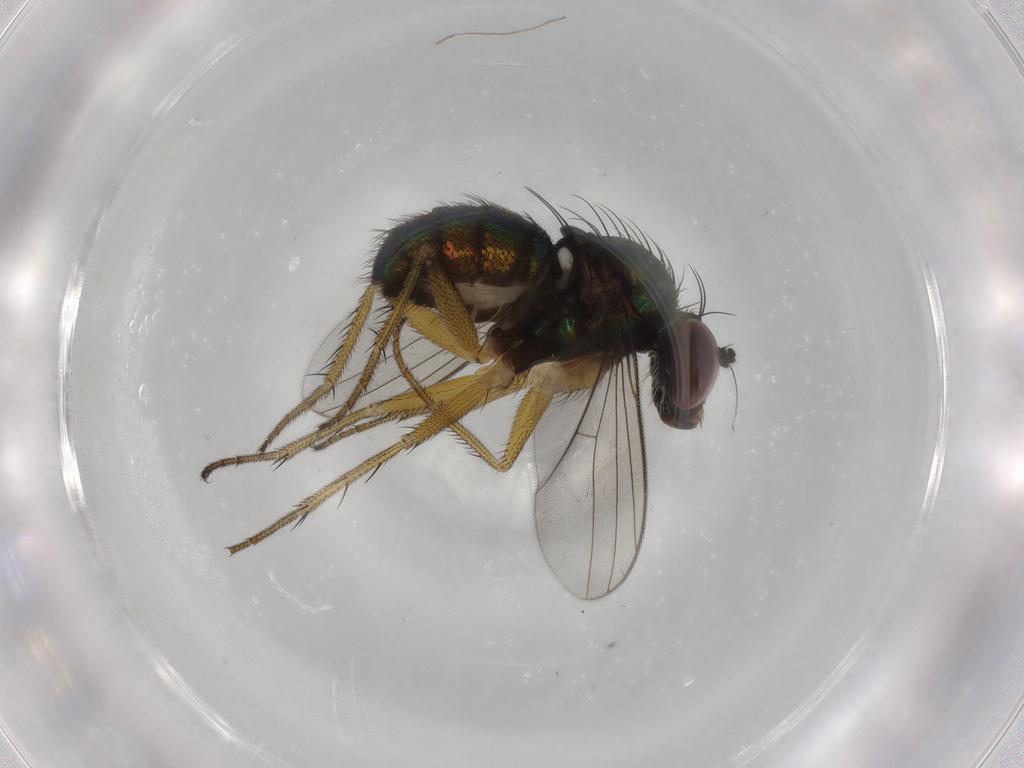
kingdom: Animalia
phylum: Arthropoda
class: Insecta
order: Diptera
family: Dolichopodidae
